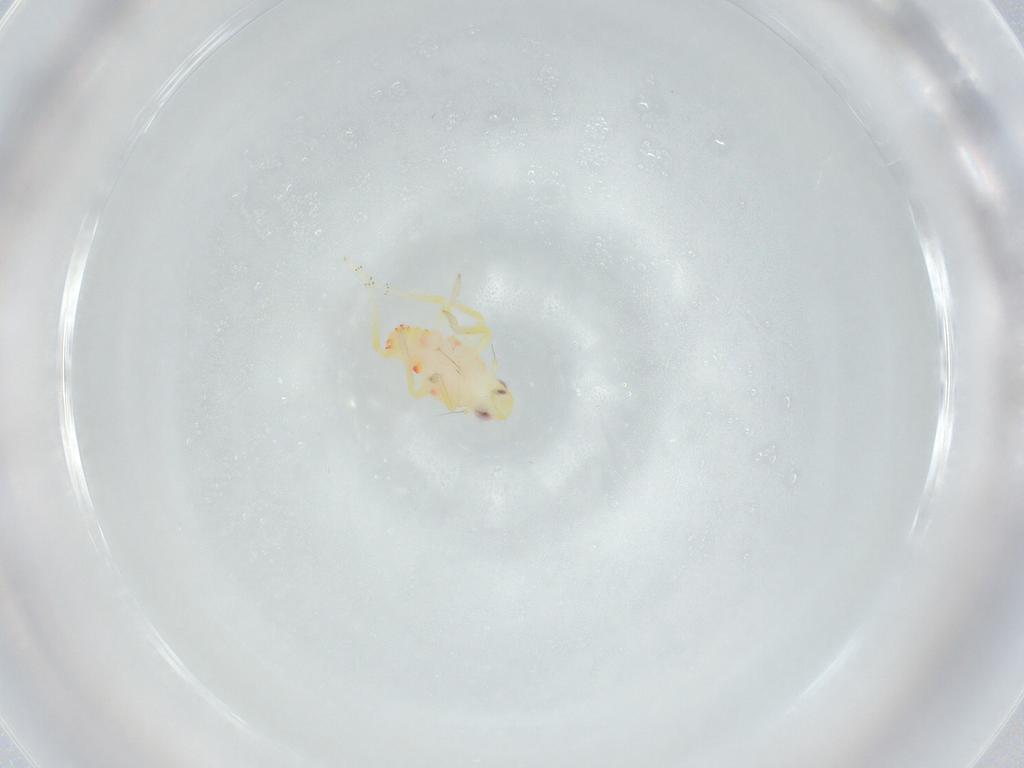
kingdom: Animalia
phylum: Arthropoda
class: Insecta
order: Hemiptera
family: Tropiduchidae
